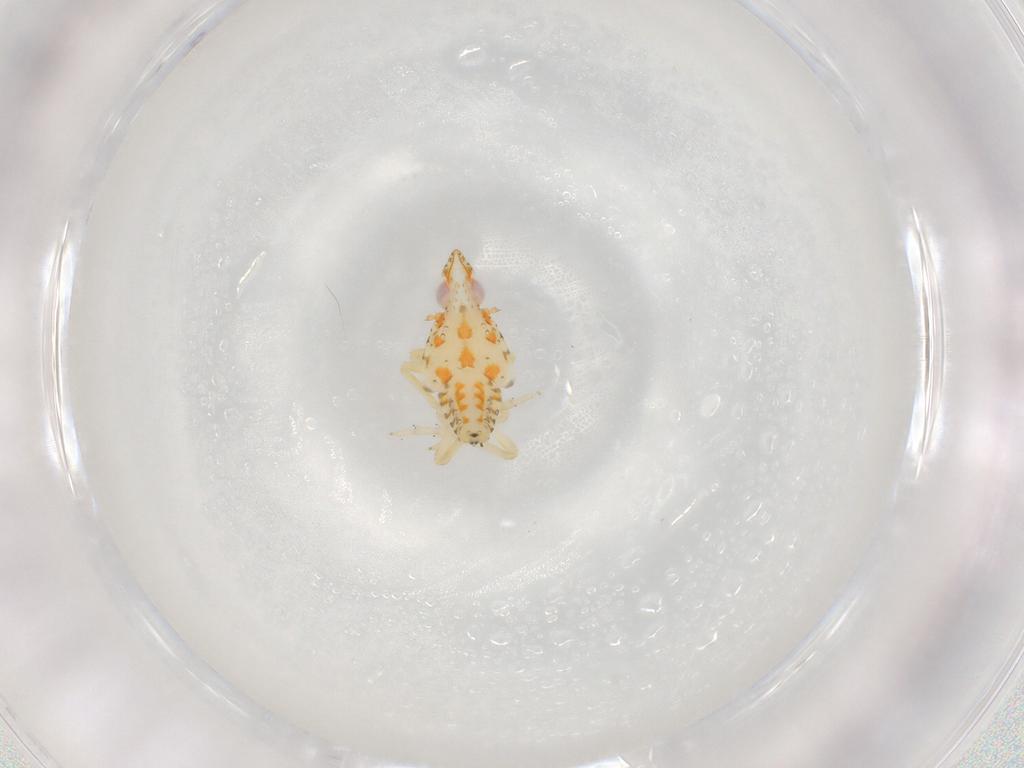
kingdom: Animalia
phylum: Arthropoda
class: Insecta
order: Hemiptera
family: Tropiduchidae
